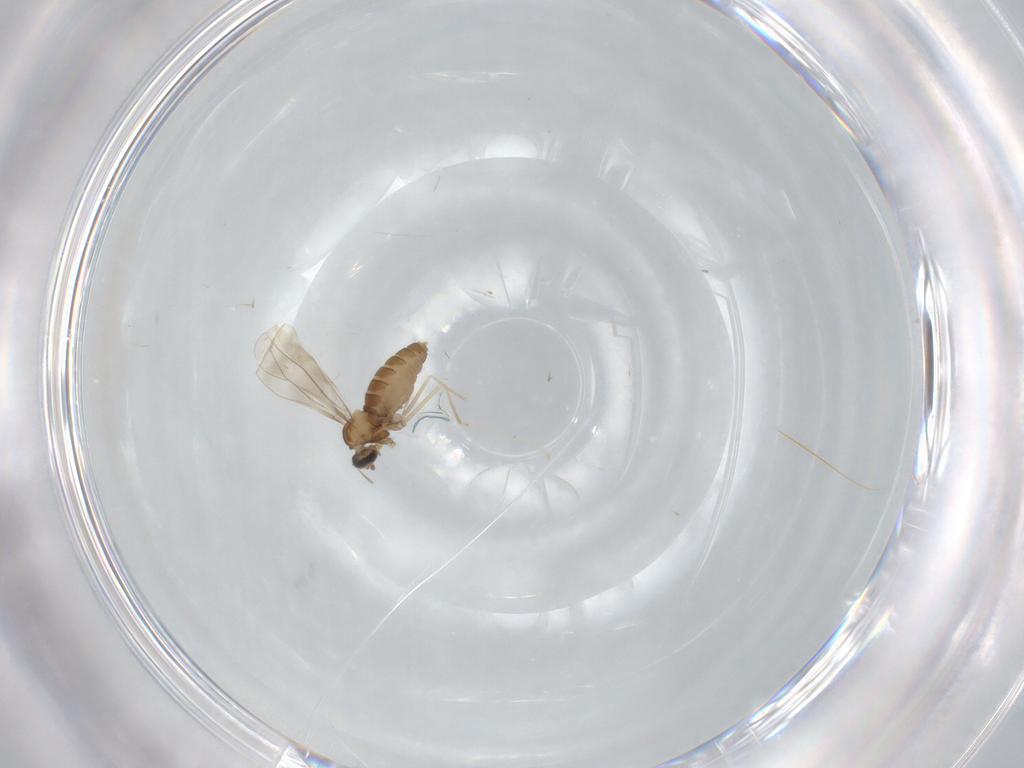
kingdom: Animalia
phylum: Arthropoda
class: Insecta
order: Diptera
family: Cecidomyiidae
